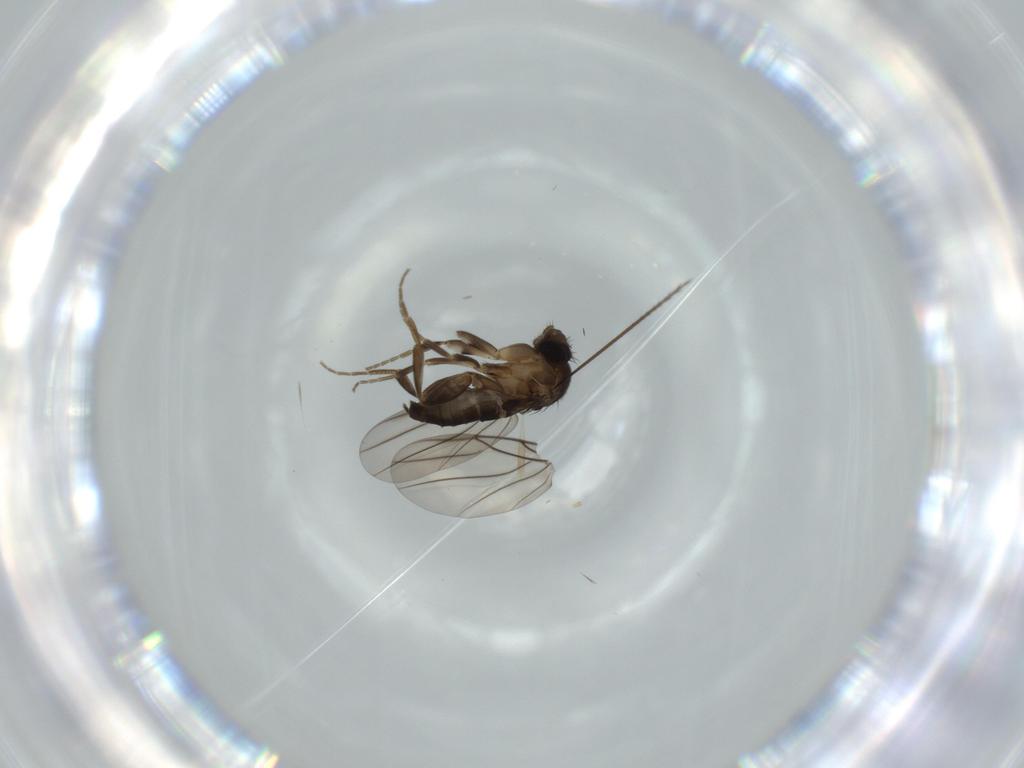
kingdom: Animalia
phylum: Arthropoda
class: Insecta
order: Diptera
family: Phoridae
